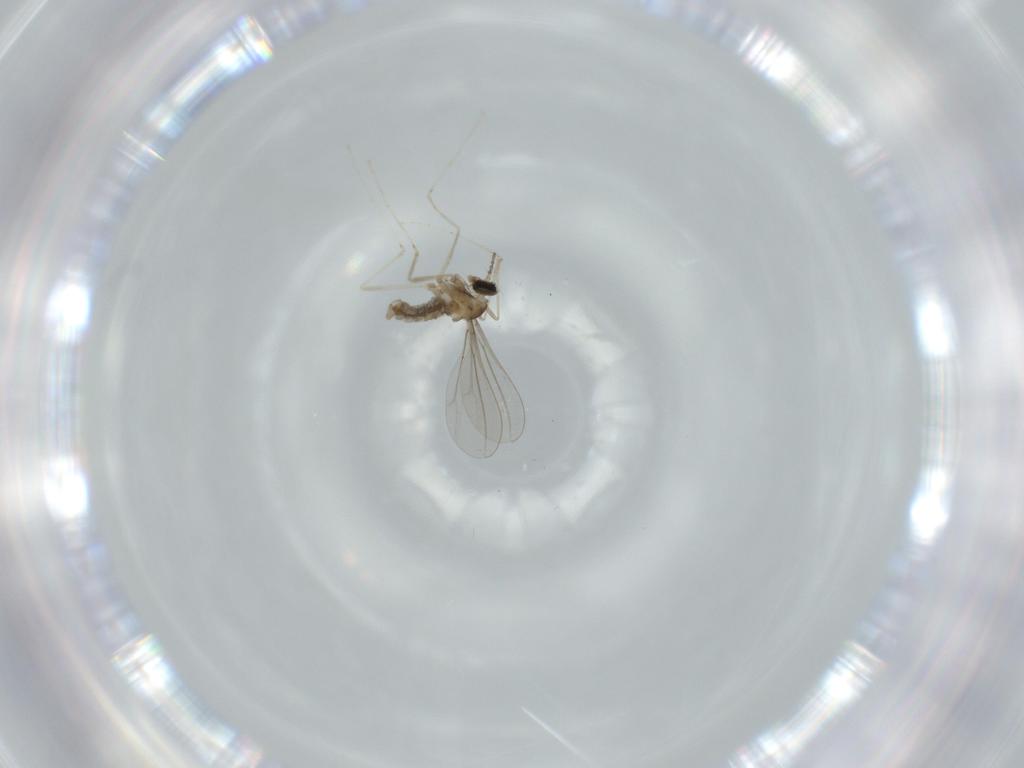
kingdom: Animalia
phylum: Arthropoda
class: Insecta
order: Diptera
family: Cecidomyiidae
